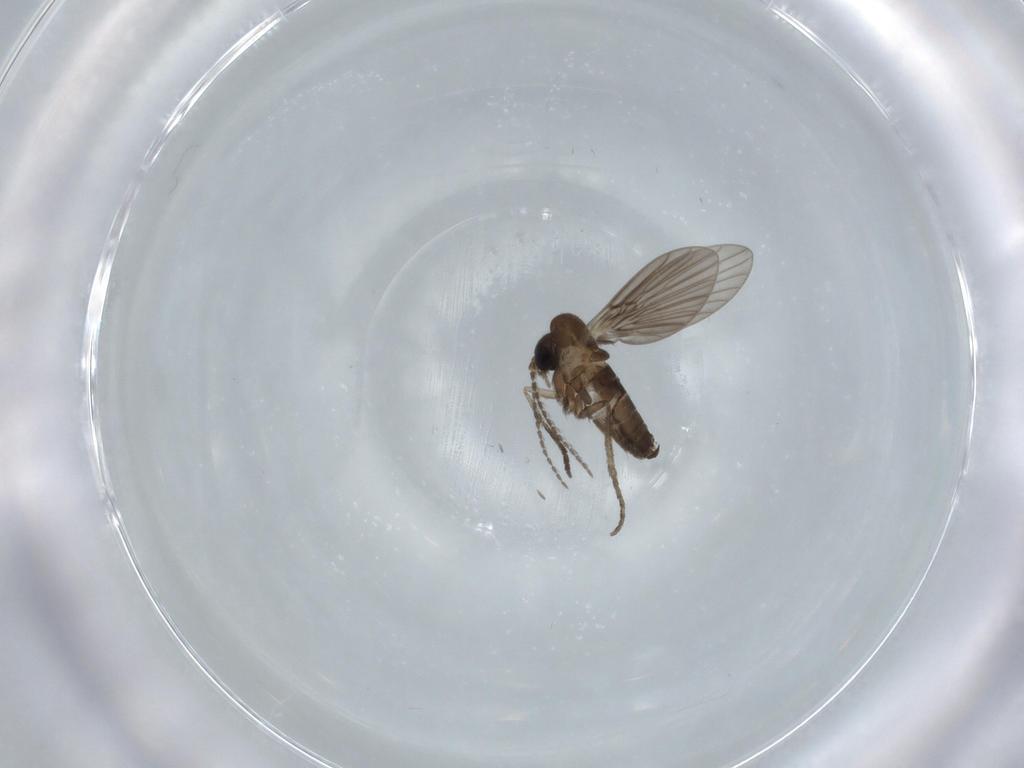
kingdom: Animalia
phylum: Arthropoda
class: Insecta
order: Diptera
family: Psychodidae
